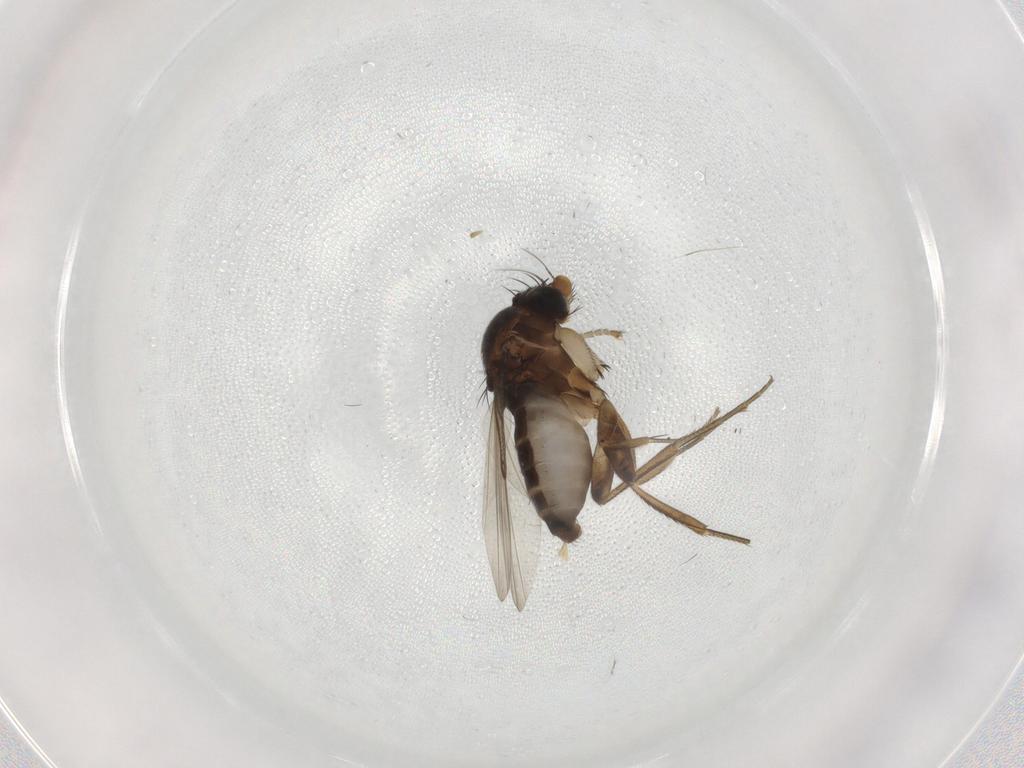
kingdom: Animalia
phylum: Arthropoda
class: Insecta
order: Diptera
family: Phoridae
